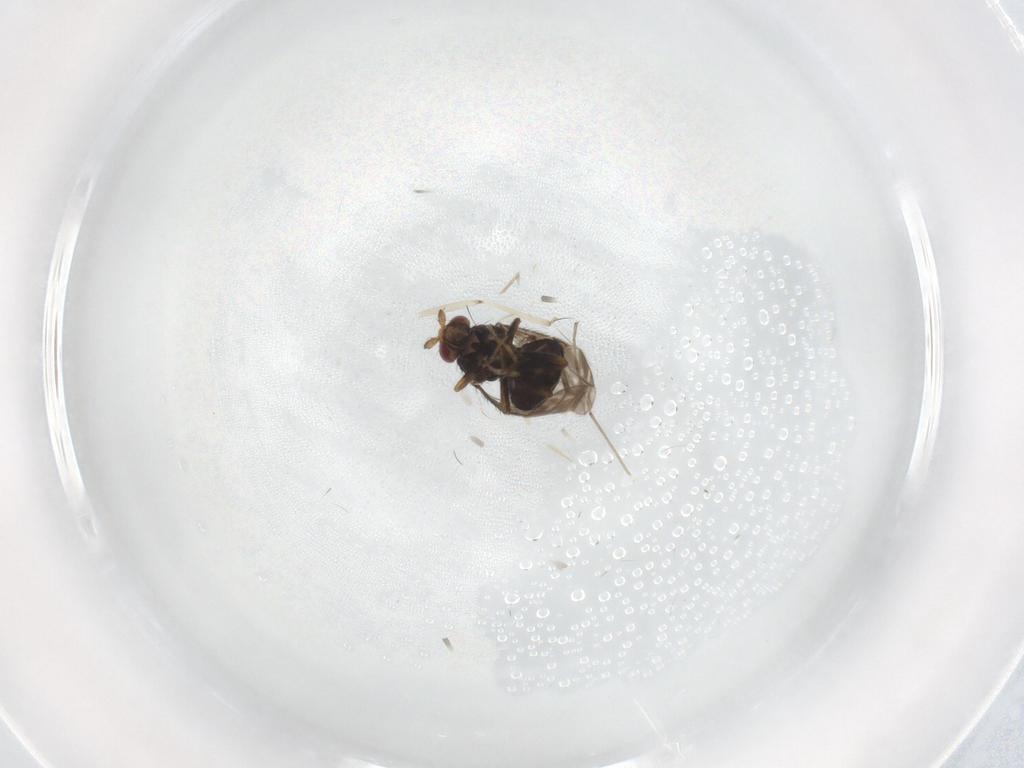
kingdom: Animalia
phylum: Arthropoda
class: Insecta
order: Diptera
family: Sphaeroceridae
